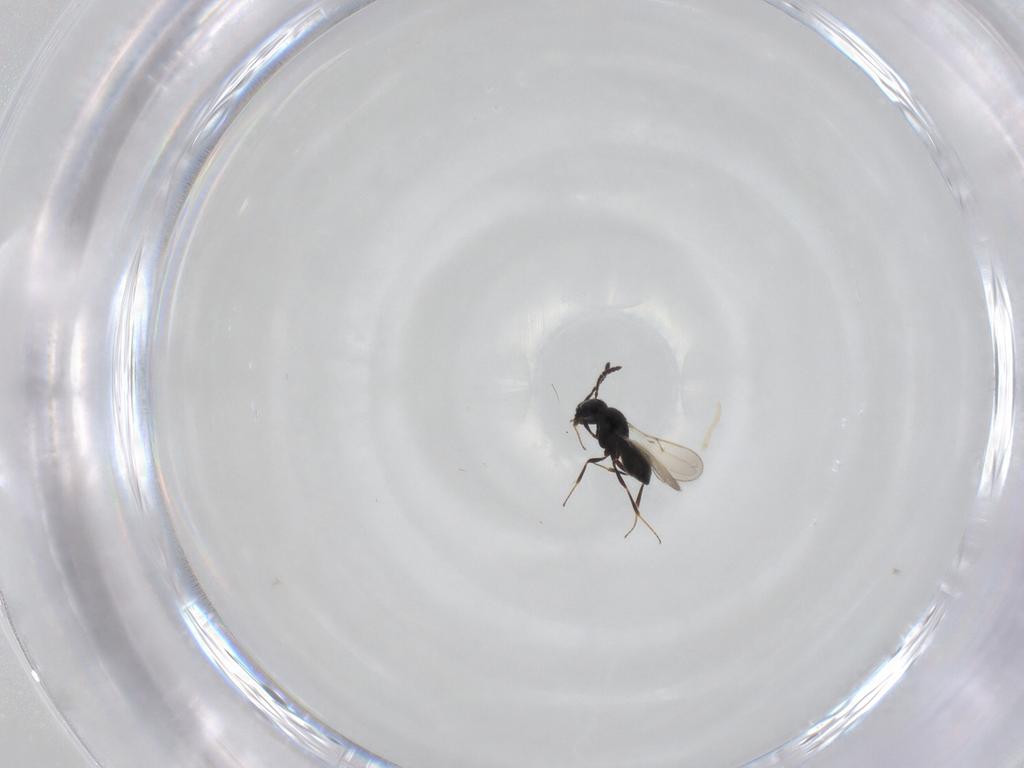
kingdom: Animalia
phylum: Arthropoda
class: Insecta
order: Hymenoptera
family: Scelionidae
